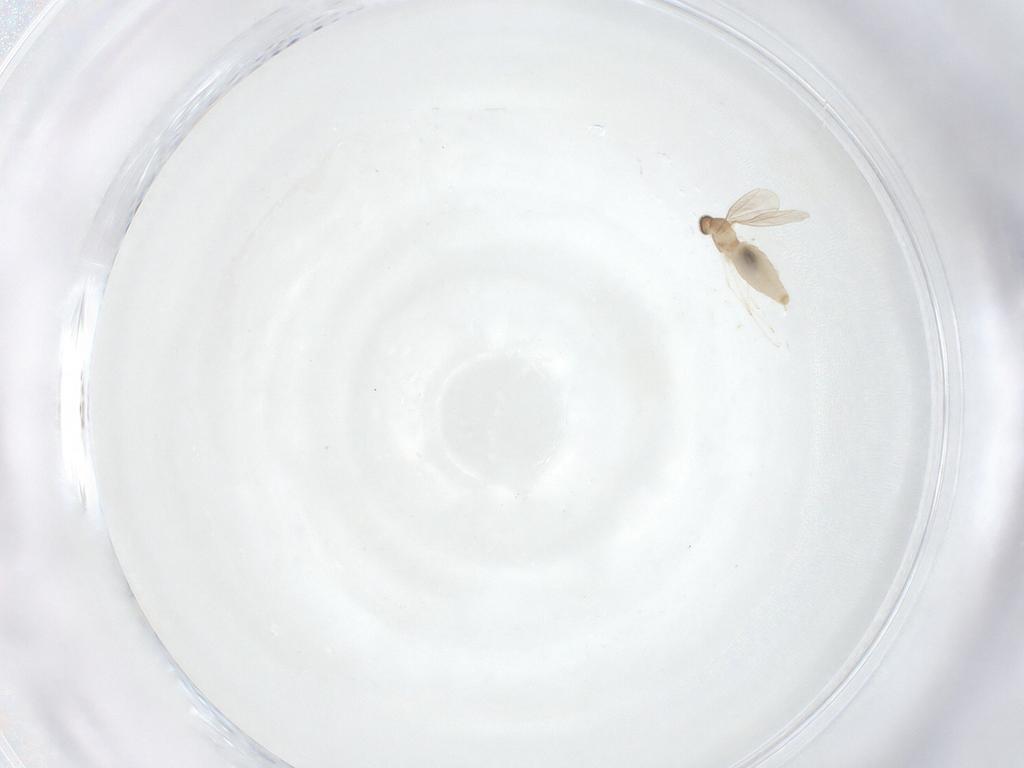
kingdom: Animalia
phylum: Arthropoda
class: Insecta
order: Diptera
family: Cecidomyiidae
